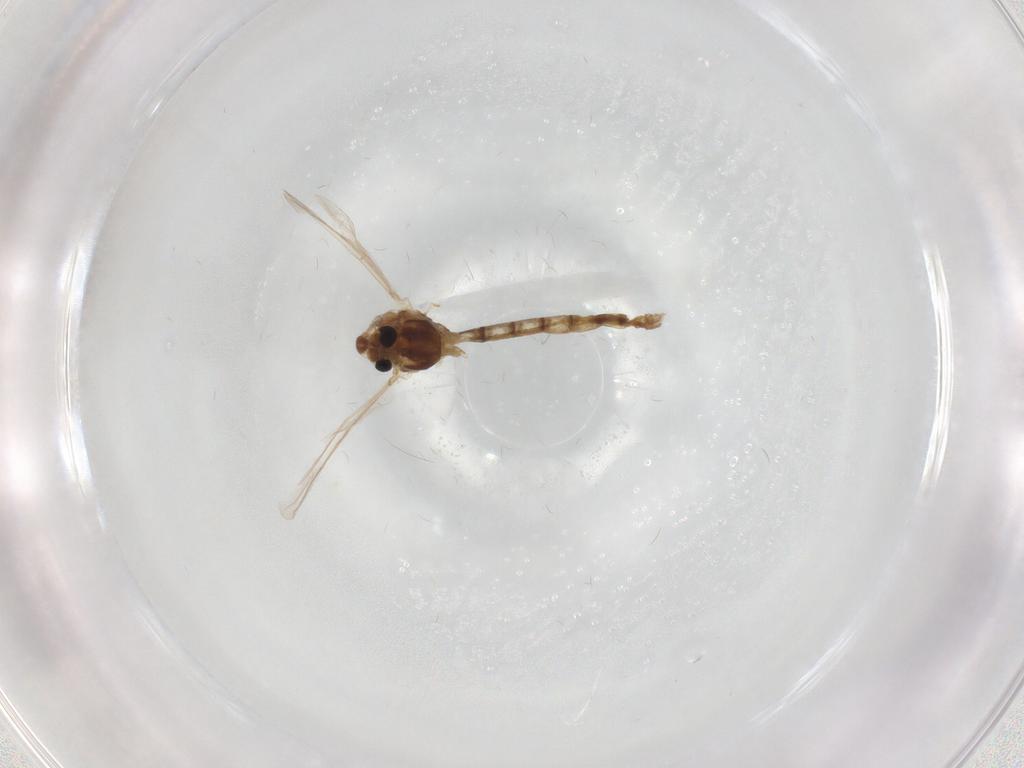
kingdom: Animalia
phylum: Arthropoda
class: Insecta
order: Diptera
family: Chironomidae
